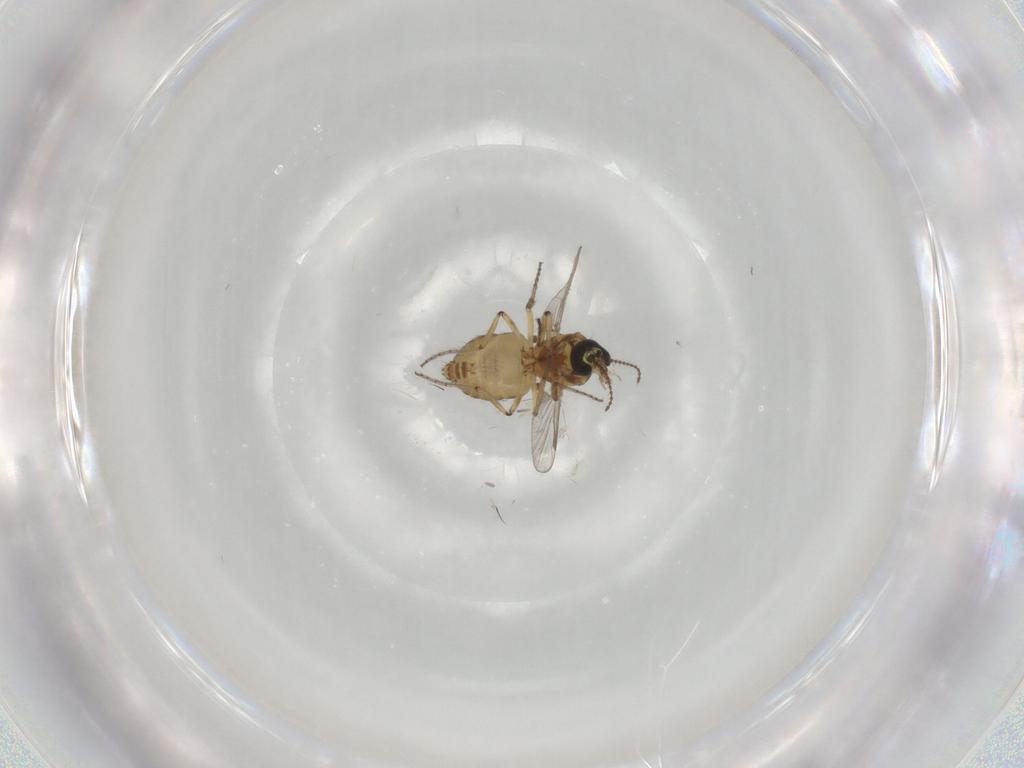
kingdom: Animalia
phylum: Arthropoda
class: Insecta
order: Diptera
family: Ceratopogonidae
